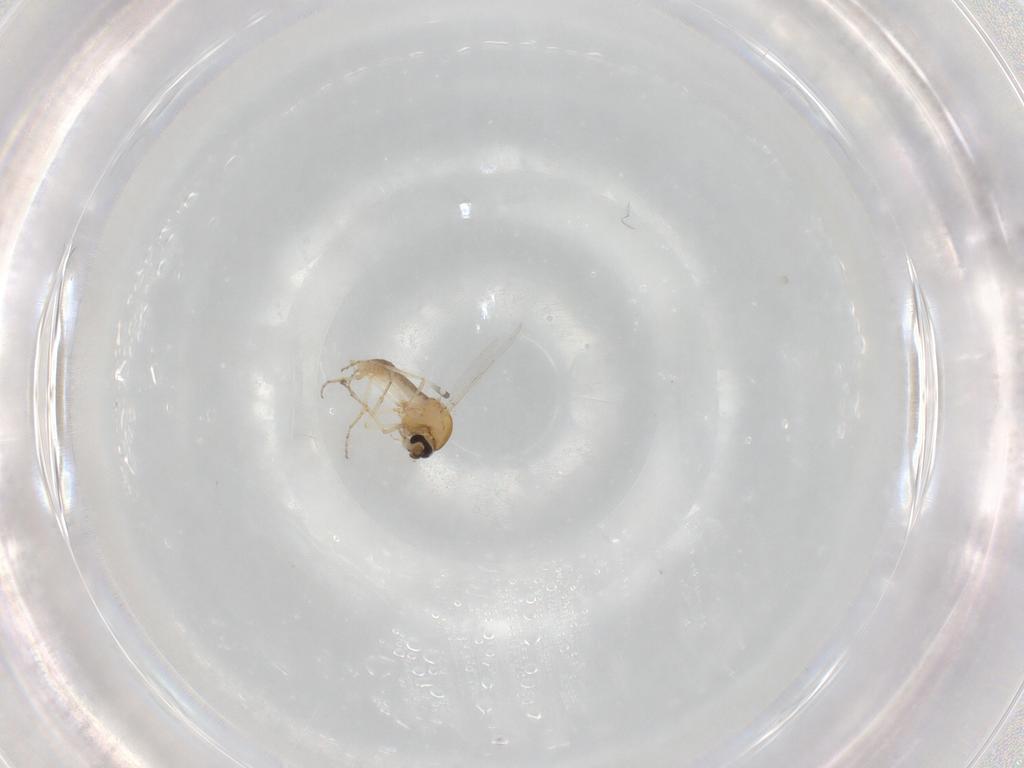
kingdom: Animalia
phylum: Arthropoda
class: Insecta
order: Diptera
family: Ceratopogonidae
